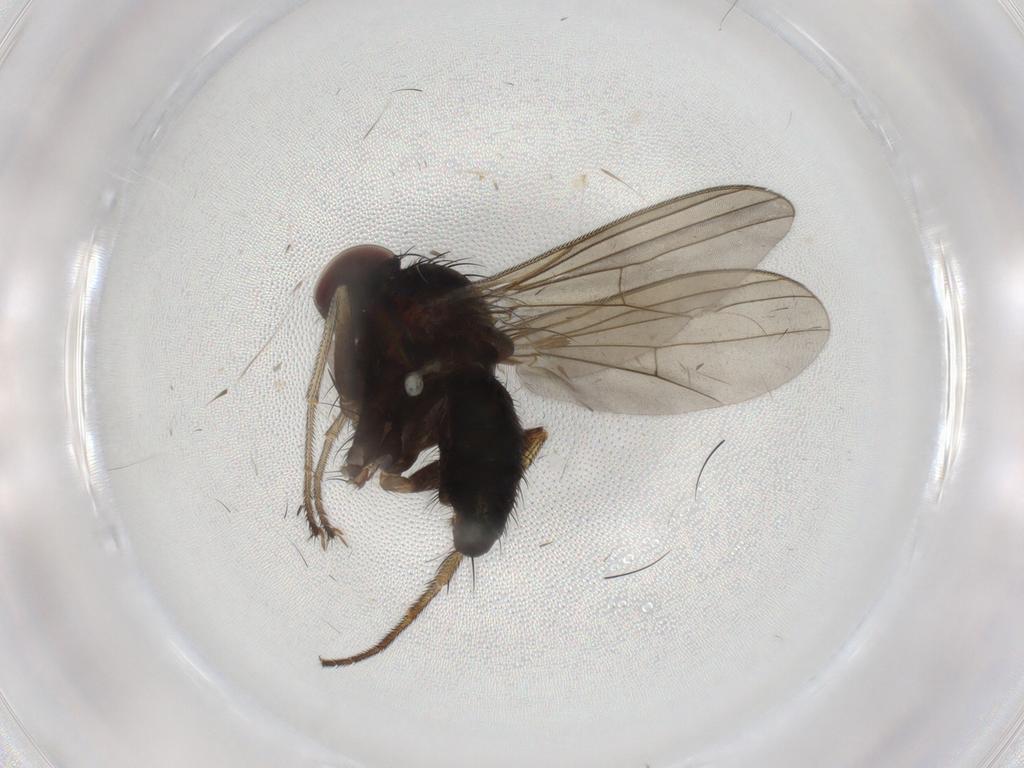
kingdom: Animalia
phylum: Arthropoda
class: Insecta
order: Diptera
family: Dolichopodidae
